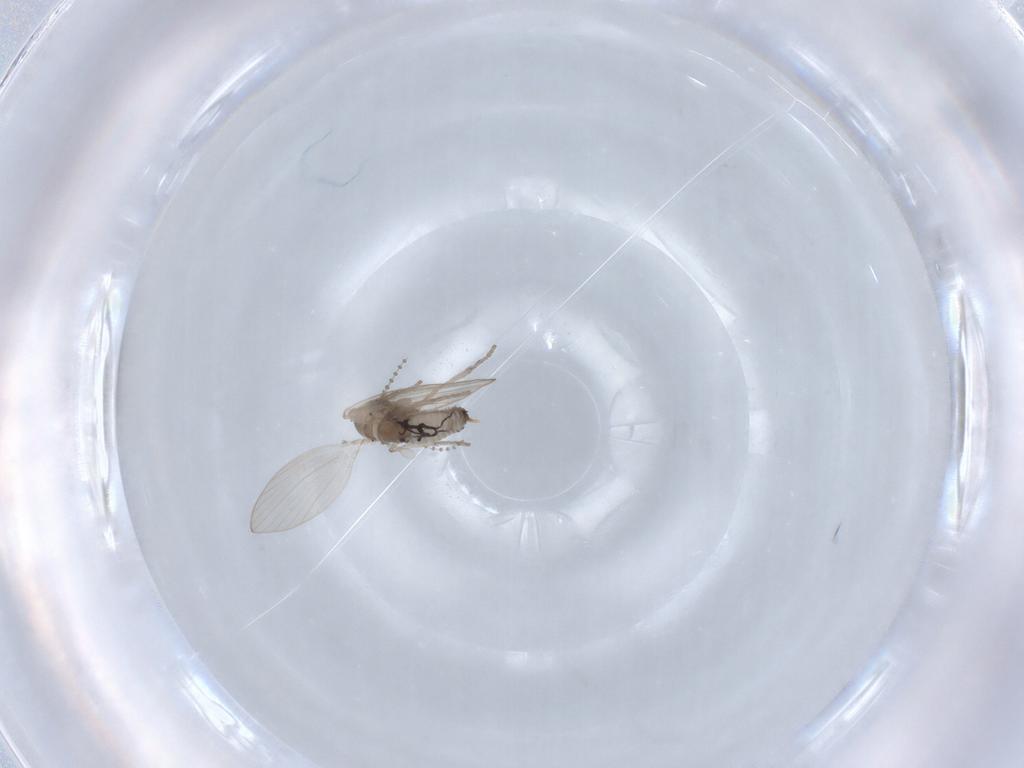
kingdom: Animalia
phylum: Arthropoda
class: Insecta
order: Diptera
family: Psychodidae
